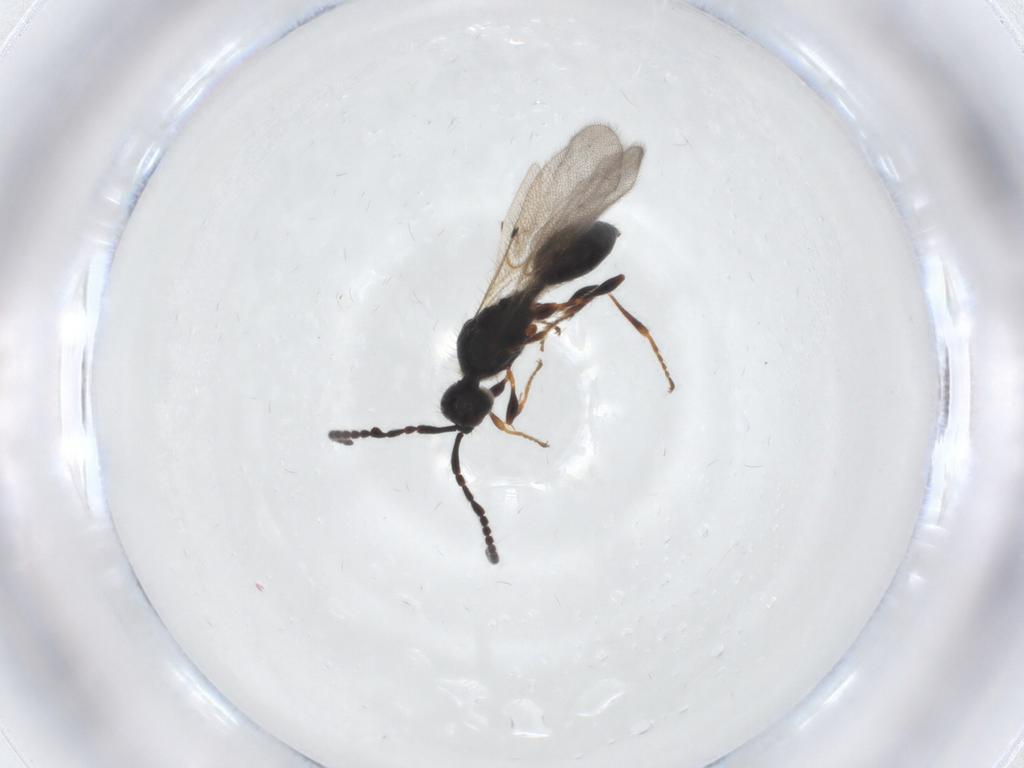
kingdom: Animalia
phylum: Arthropoda
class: Insecta
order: Hymenoptera
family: Diapriidae
